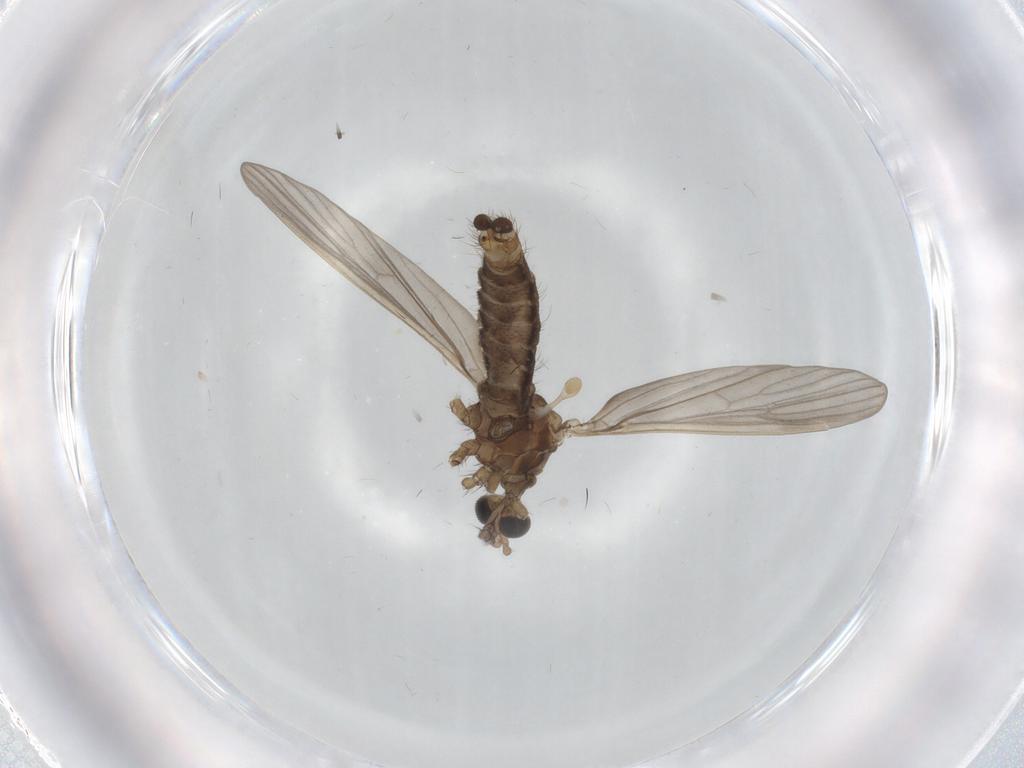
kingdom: Animalia
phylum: Arthropoda
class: Insecta
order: Diptera
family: Limoniidae
